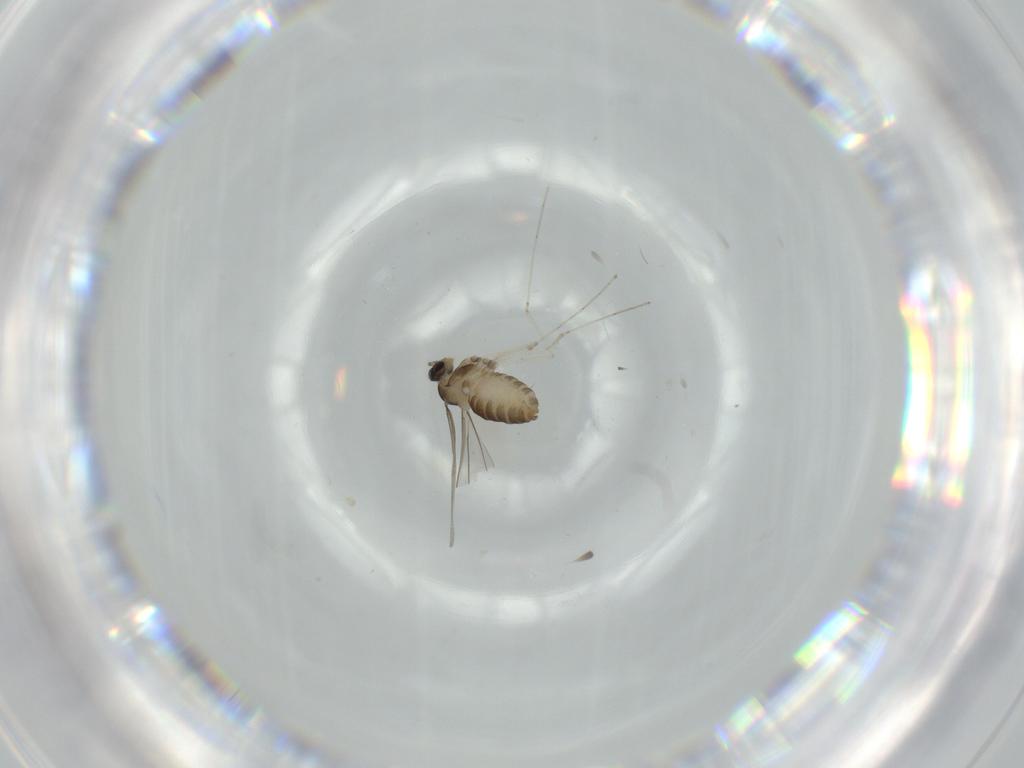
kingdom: Animalia
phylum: Arthropoda
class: Insecta
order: Diptera
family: Cecidomyiidae
